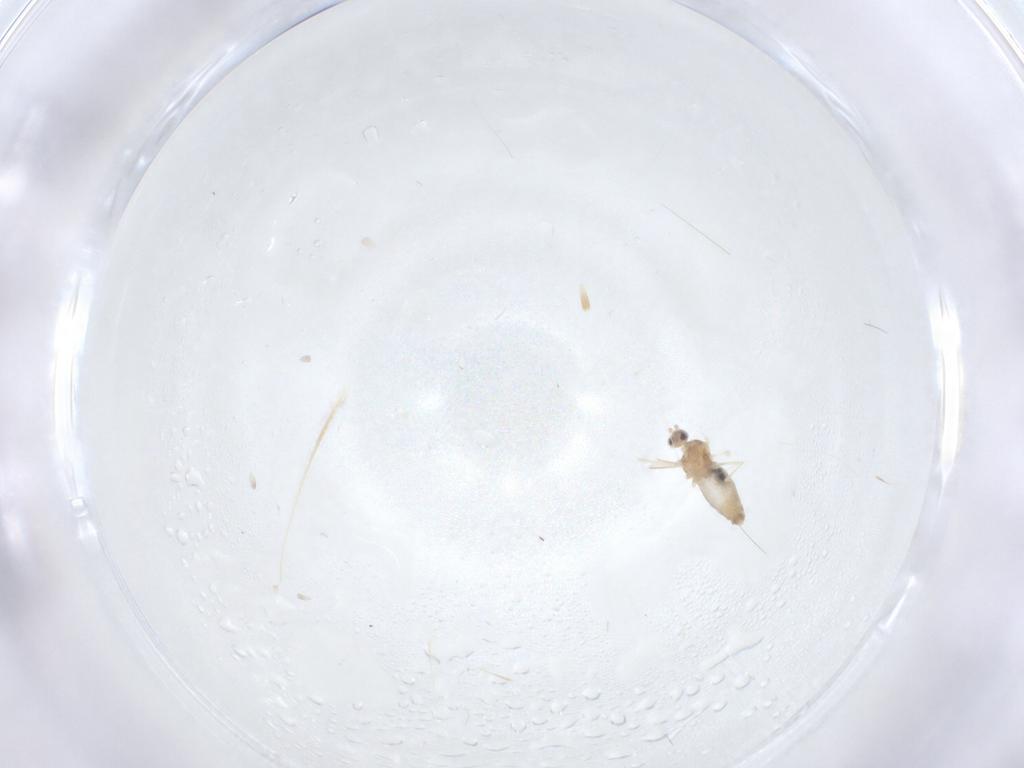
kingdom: Animalia
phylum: Arthropoda
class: Insecta
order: Diptera
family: Cecidomyiidae
